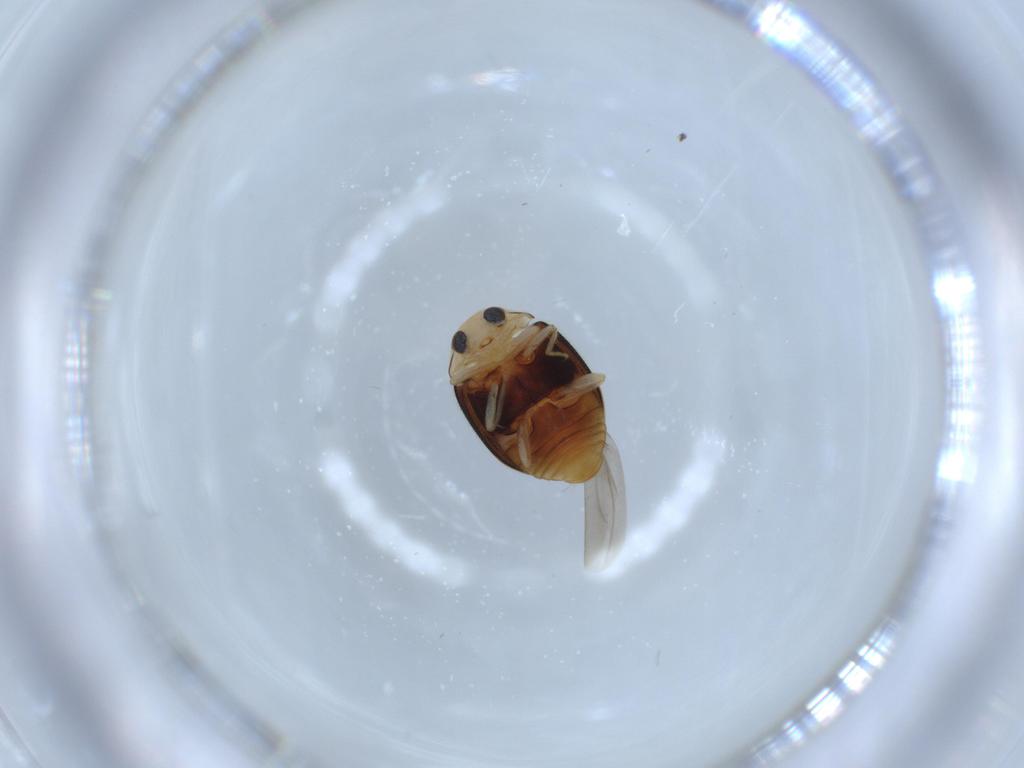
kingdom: Animalia
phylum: Arthropoda
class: Insecta
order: Coleoptera
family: Coccinellidae
